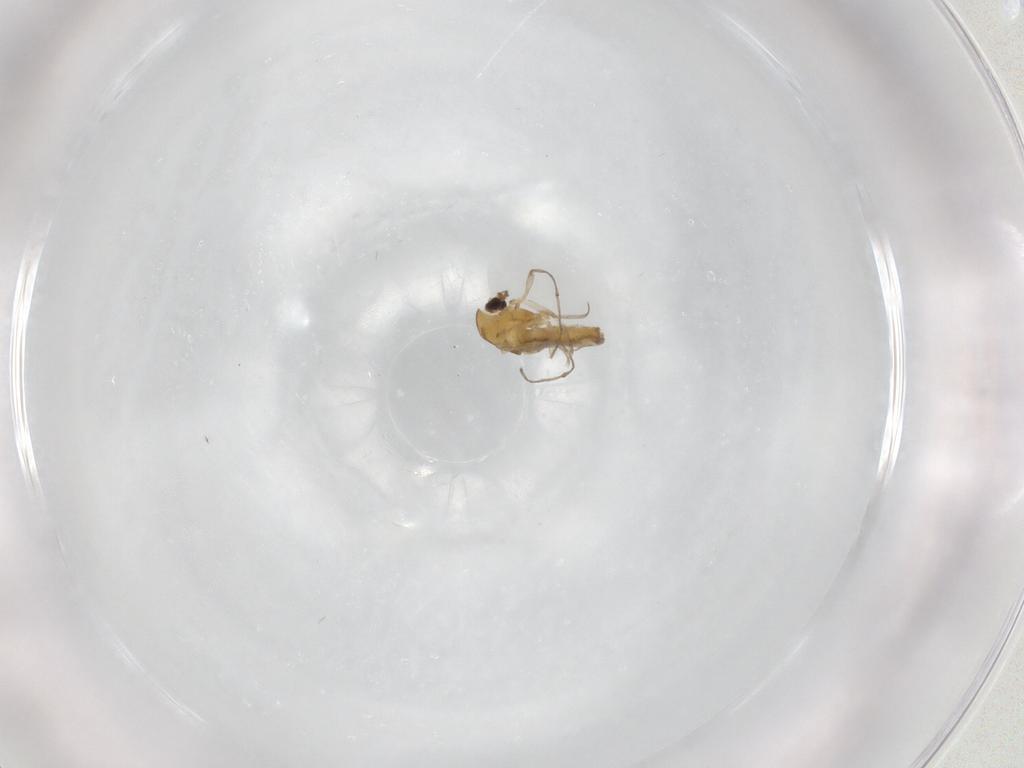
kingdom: Animalia
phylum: Arthropoda
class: Insecta
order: Diptera
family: Chironomidae
